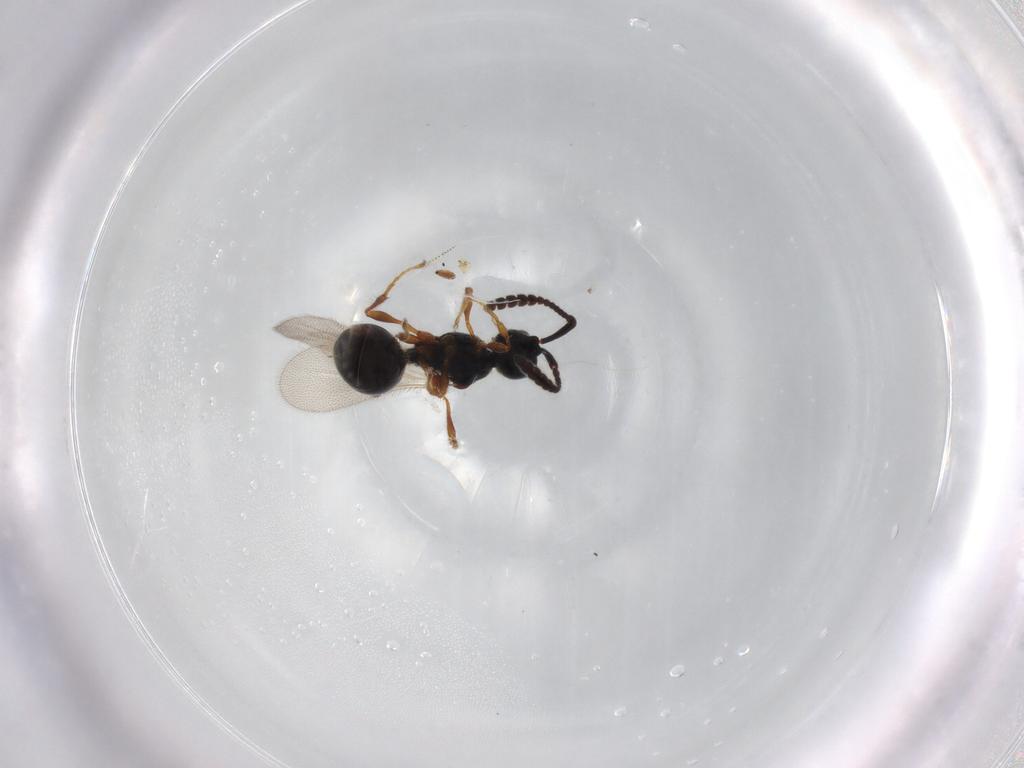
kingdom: Animalia
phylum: Arthropoda
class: Insecta
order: Hymenoptera
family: Diapriidae
